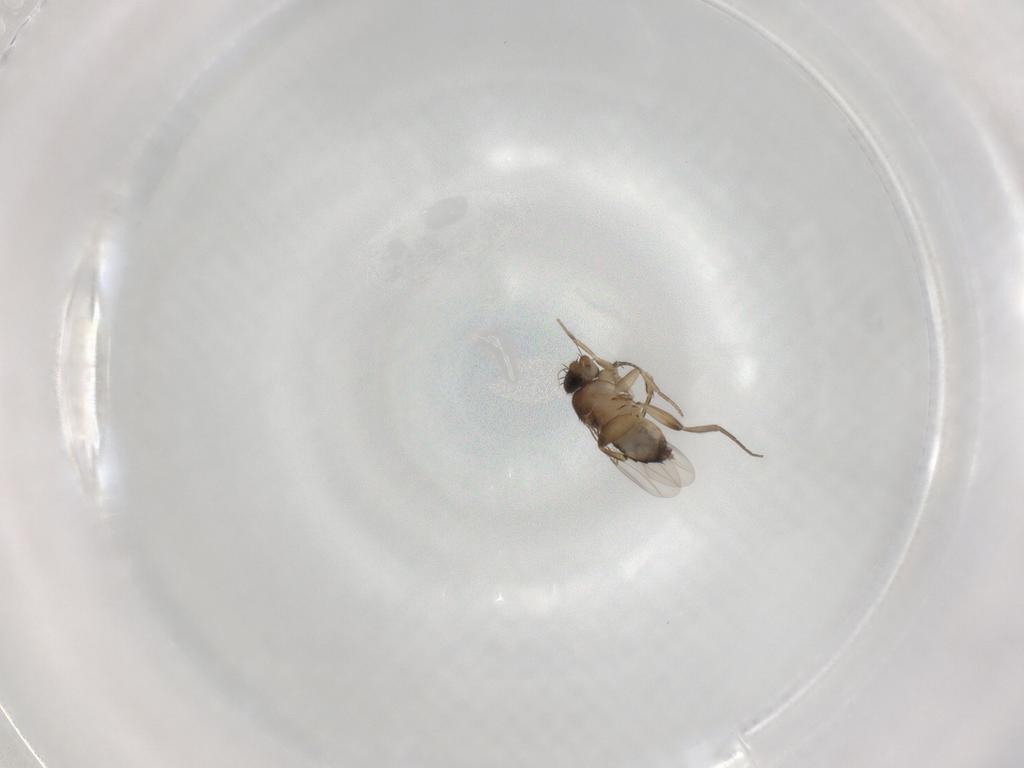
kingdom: Animalia
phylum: Arthropoda
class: Insecta
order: Diptera
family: Phoridae
